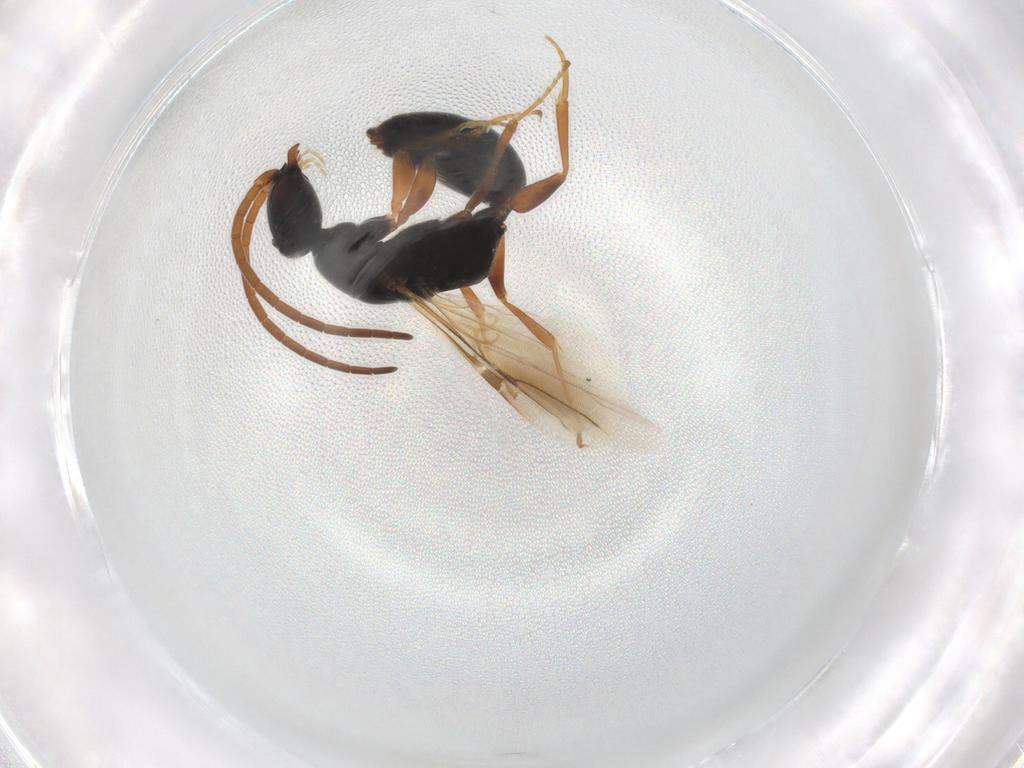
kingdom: Animalia
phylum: Arthropoda
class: Insecta
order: Hymenoptera
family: Bethylidae
